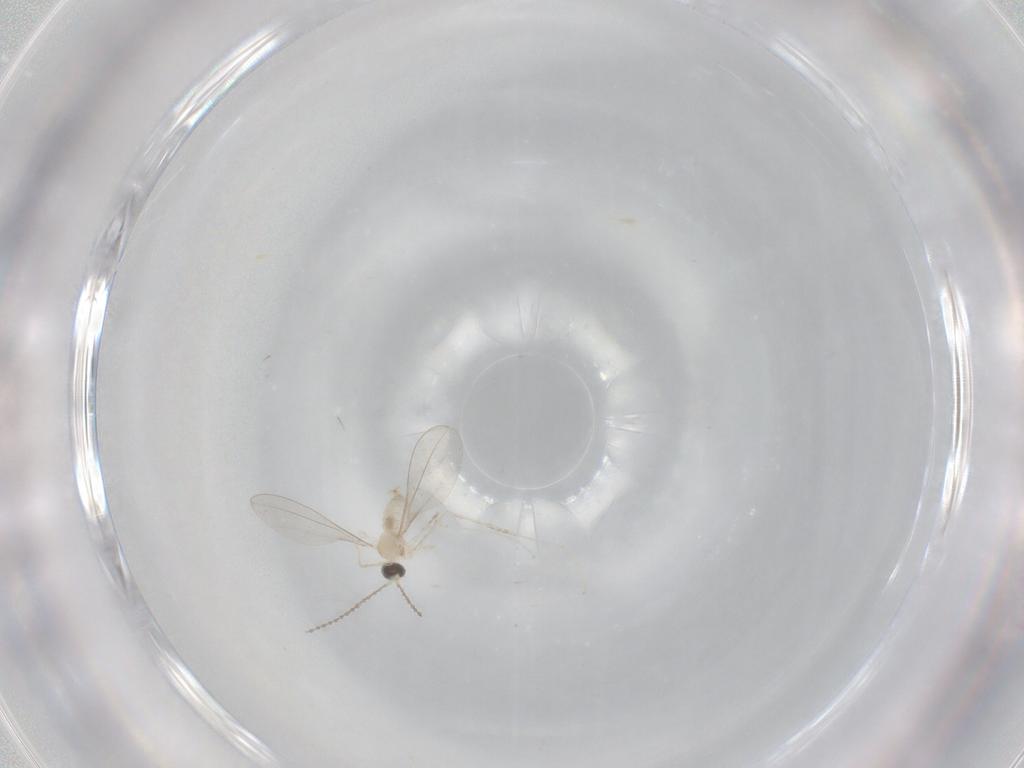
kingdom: Animalia
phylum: Arthropoda
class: Insecta
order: Diptera
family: Cecidomyiidae
